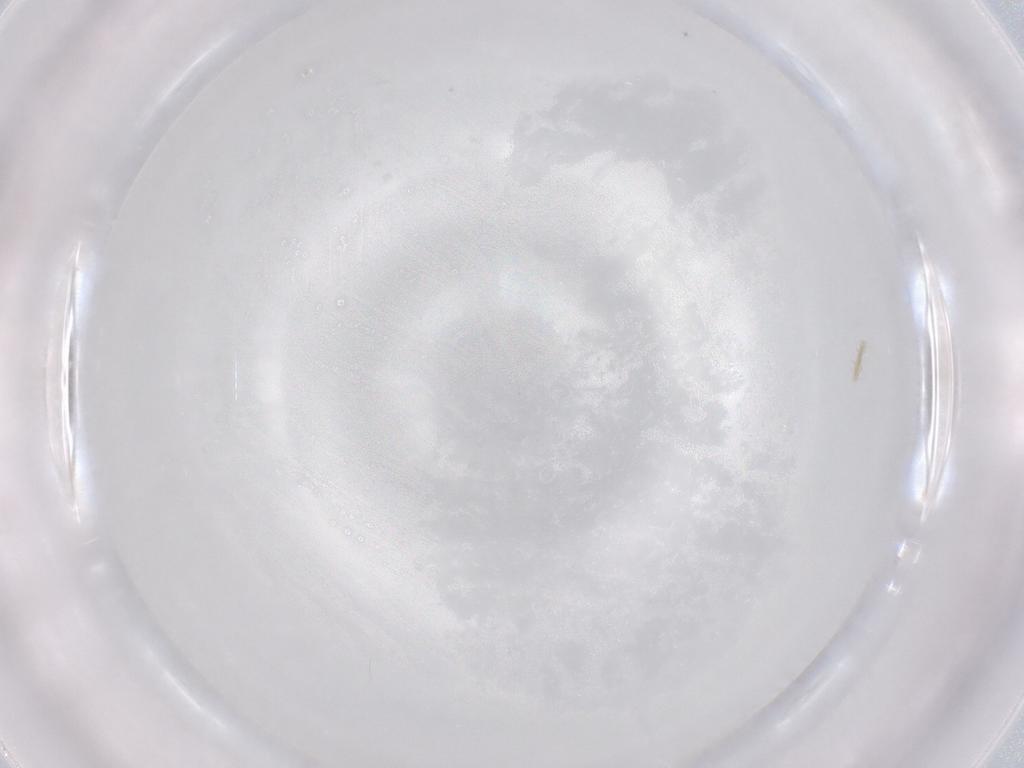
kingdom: Animalia
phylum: Arthropoda
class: Arachnida
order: Trombidiformes
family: Eupodidae
